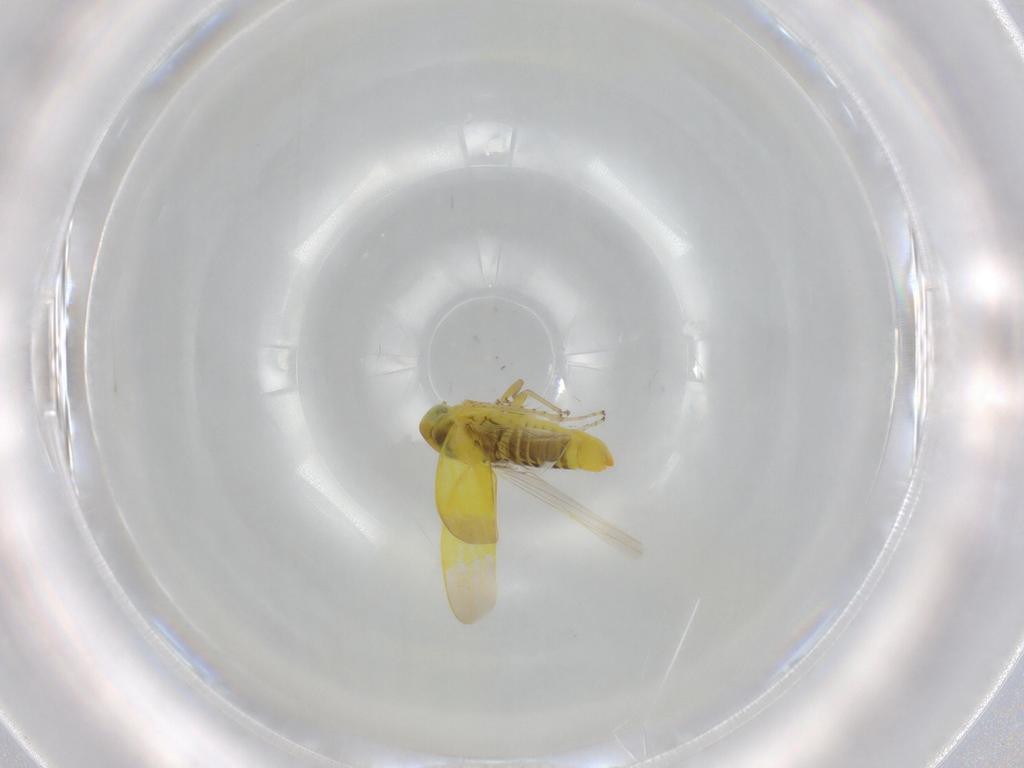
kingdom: Animalia
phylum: Arthropoda
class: Insecta
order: Hemiptera
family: Cicadellidae
